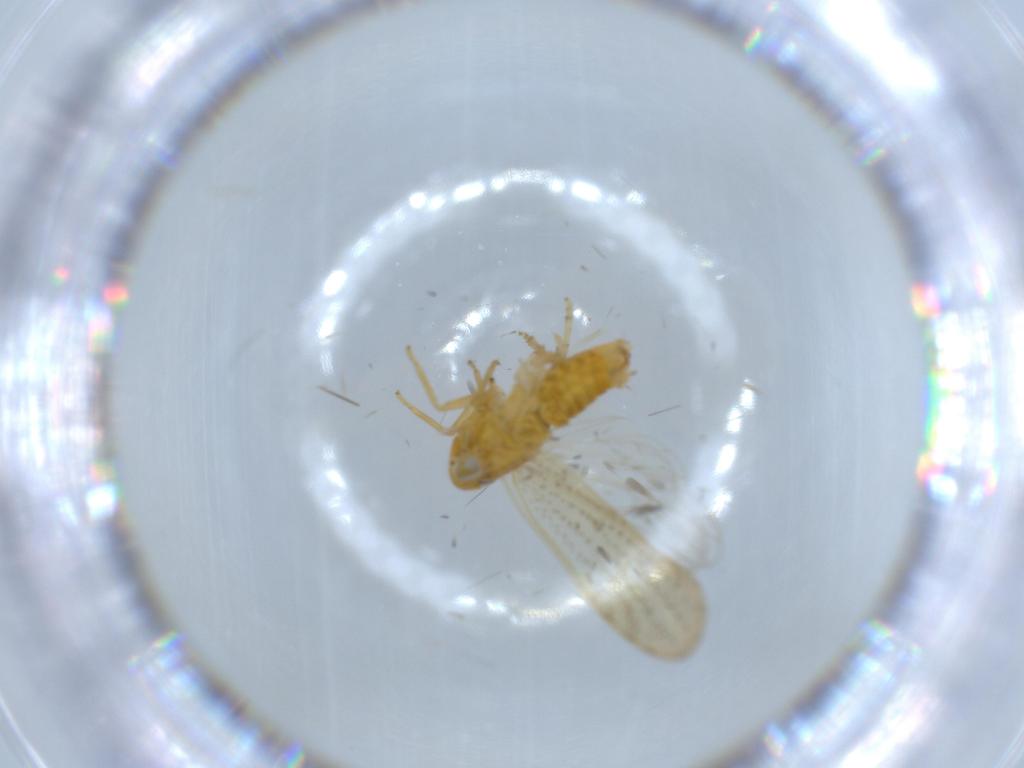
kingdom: Animalia
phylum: Arthropoda
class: Insecta
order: Hemiptera
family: Delphacidae
